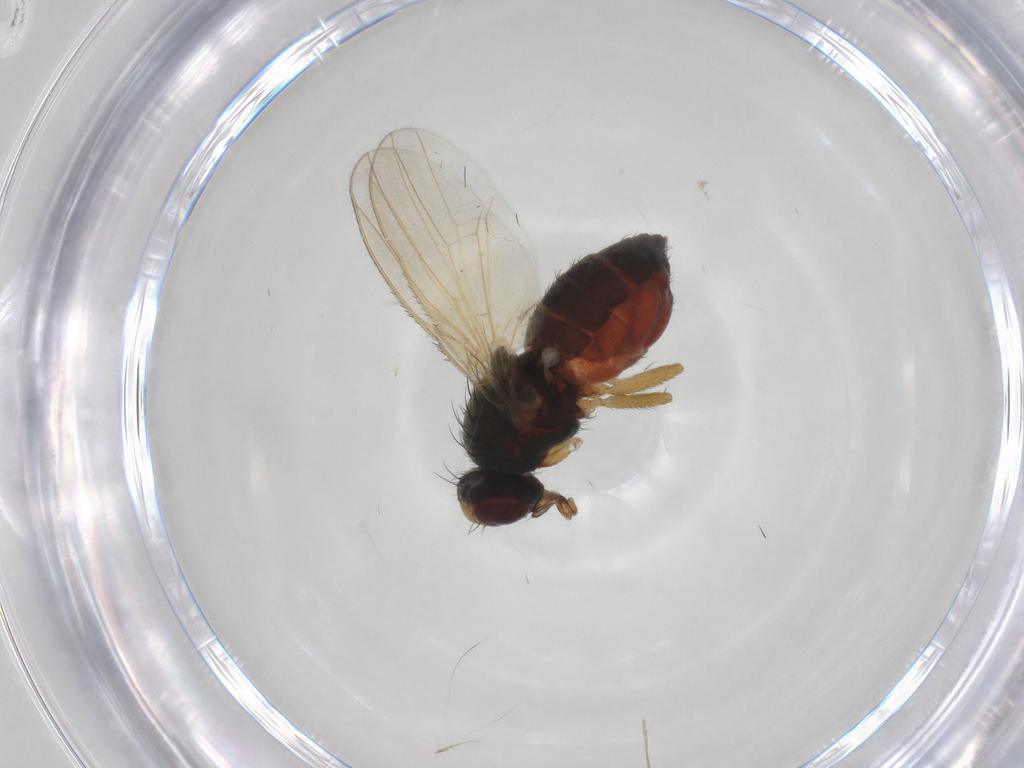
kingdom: Animalia
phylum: Arthropoda
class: Insecta
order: Diptera
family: Heleomyzidae
